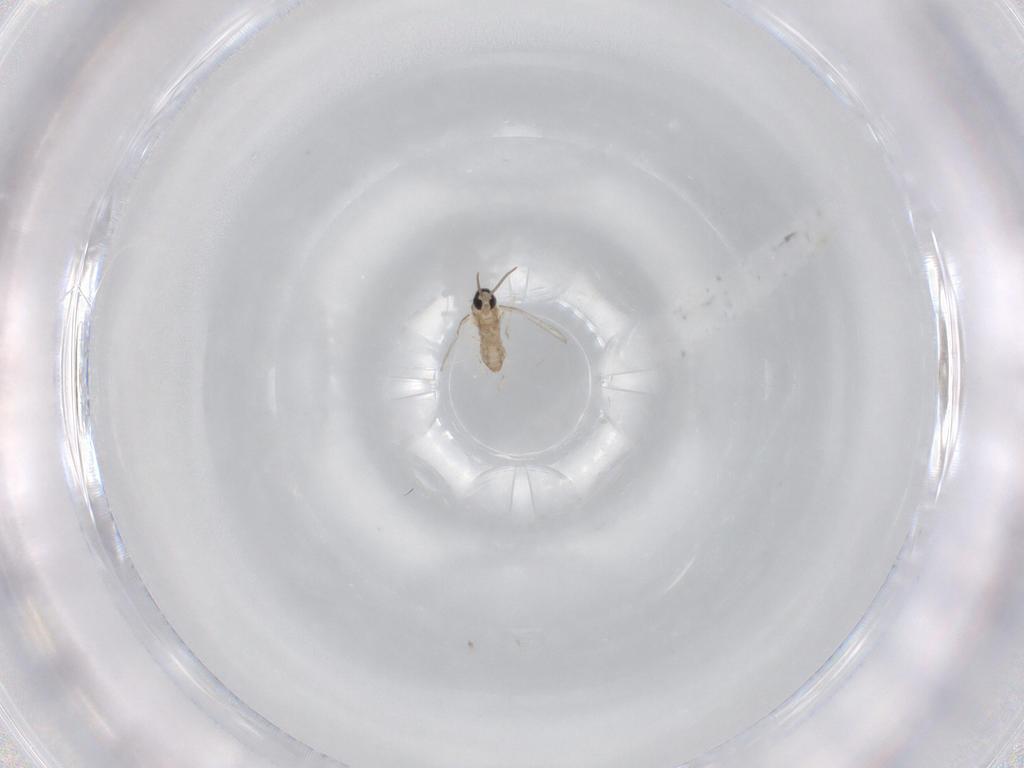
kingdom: Animalia
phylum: Arthropoda
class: Insecta
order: Diptera
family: Cecidomyiidae
